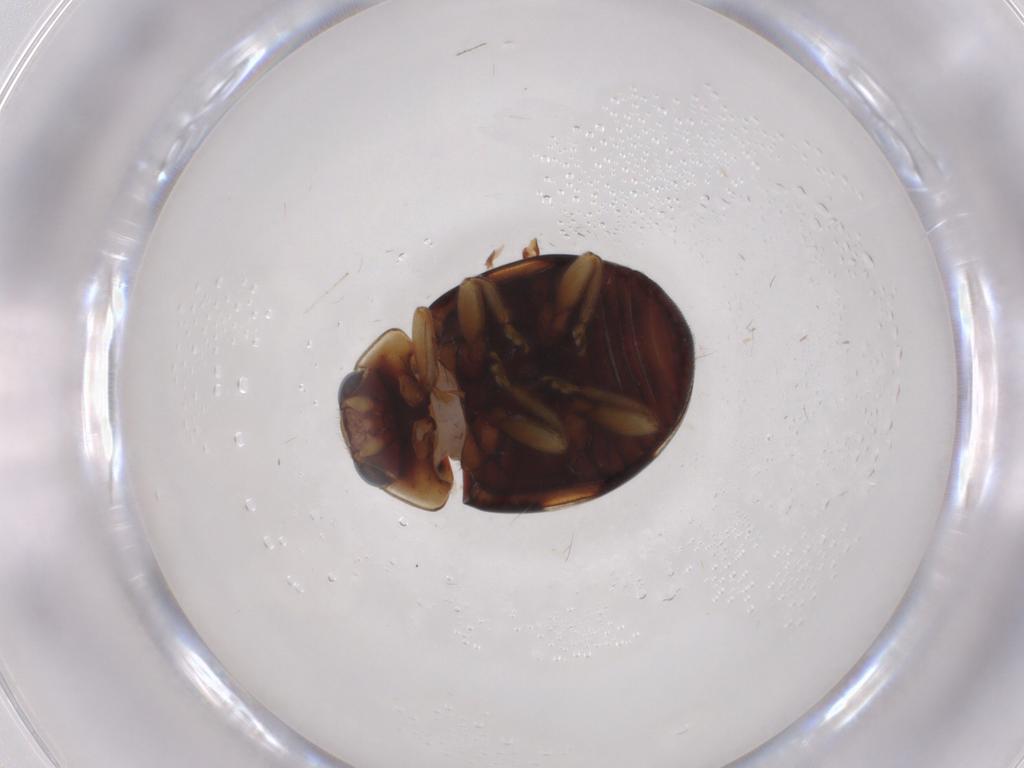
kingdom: Animalia
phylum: Arthropoda
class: Insecta
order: Coleoptera
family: Coccinellidae
